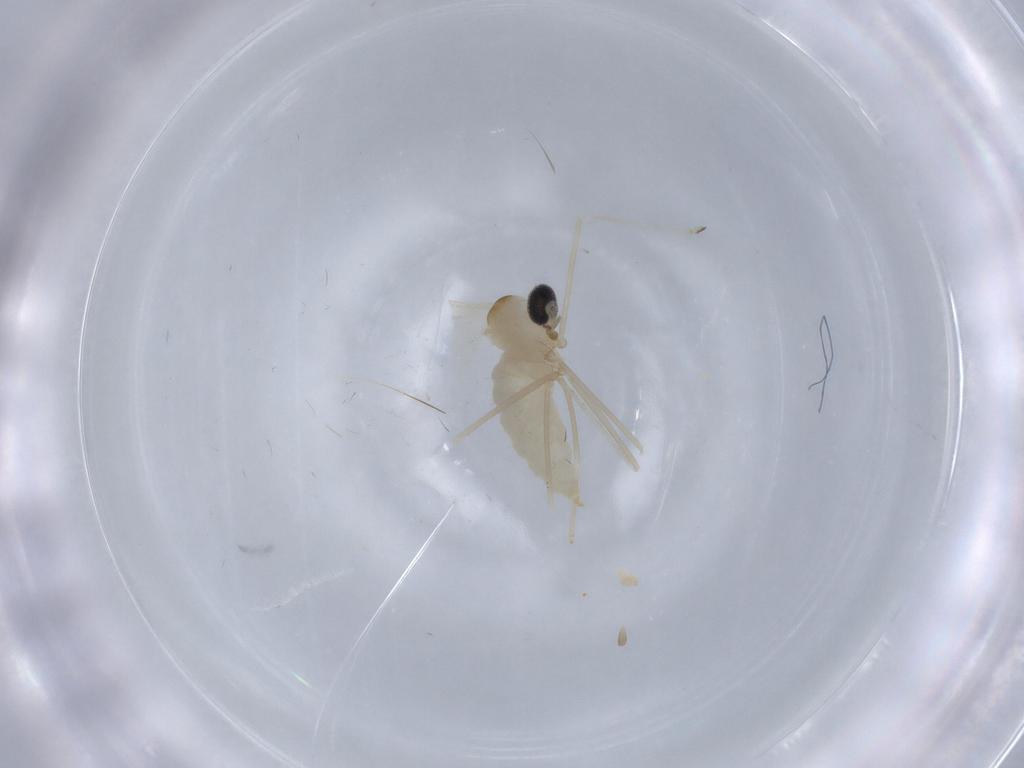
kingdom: Animalia
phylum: Arthropoda
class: Insecta
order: Diptera
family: Cecidomyiidae
